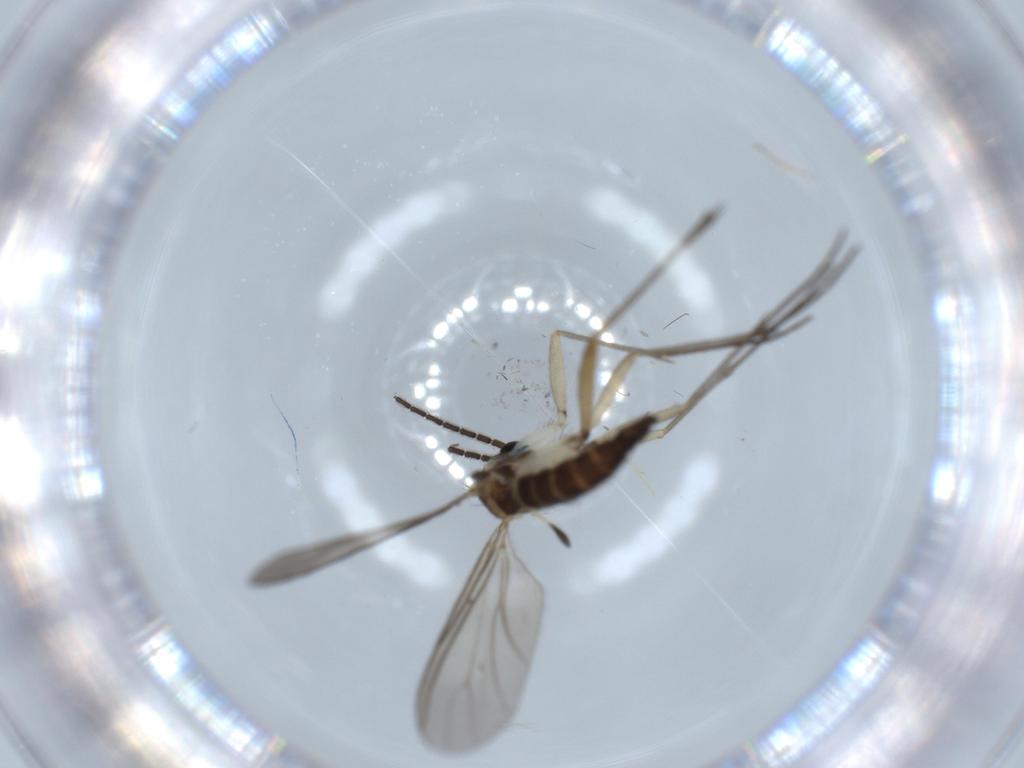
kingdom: Animalia
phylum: Arthropoda
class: Insecta
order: Diptera
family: Sciaridae
